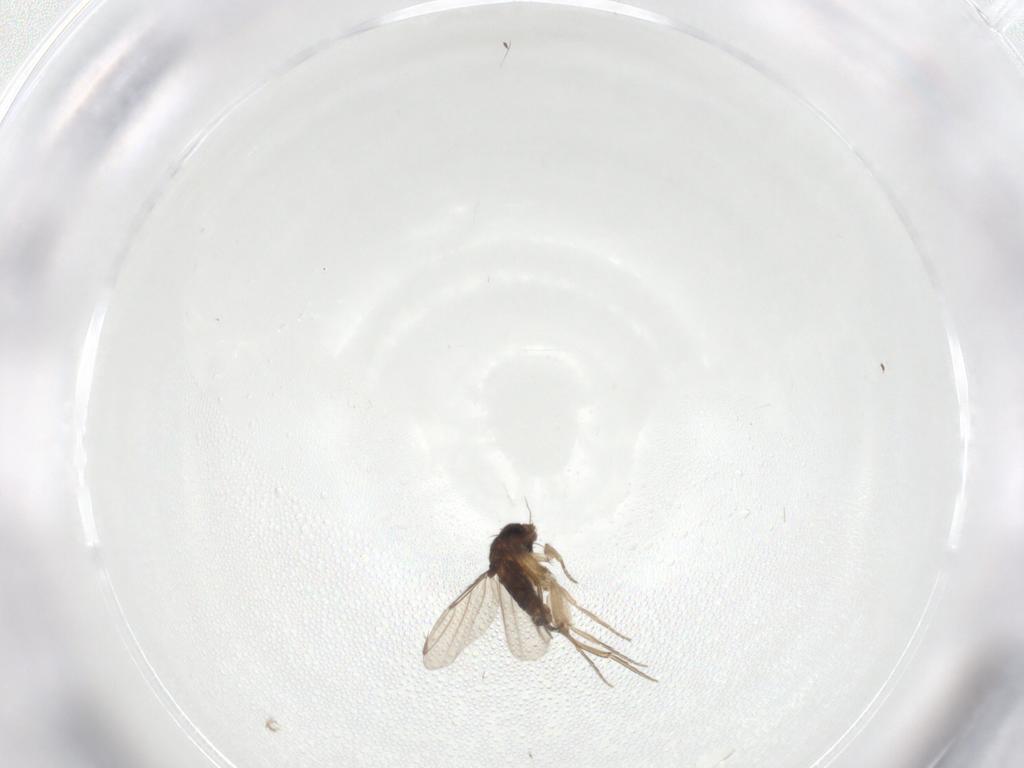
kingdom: Animalia
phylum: Arthropoda
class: Insecta
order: Diptera
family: Phoridae
